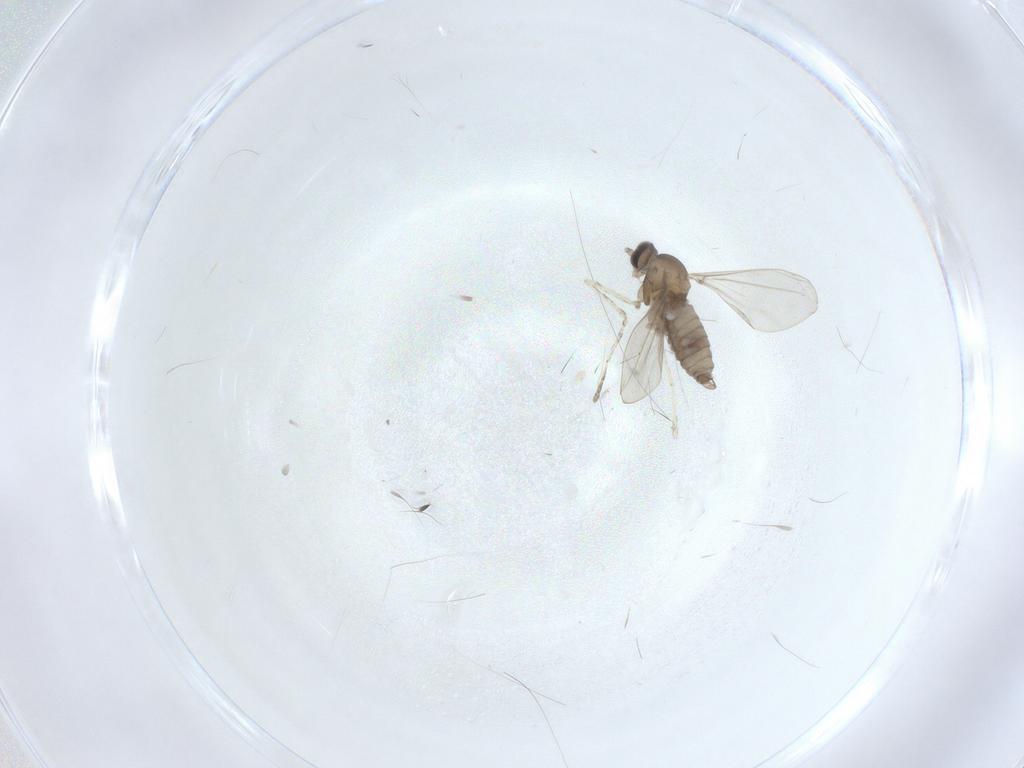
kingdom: Animalia
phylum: Arthropoda
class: Insecta
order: Diptera
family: Cecidomyiidae
